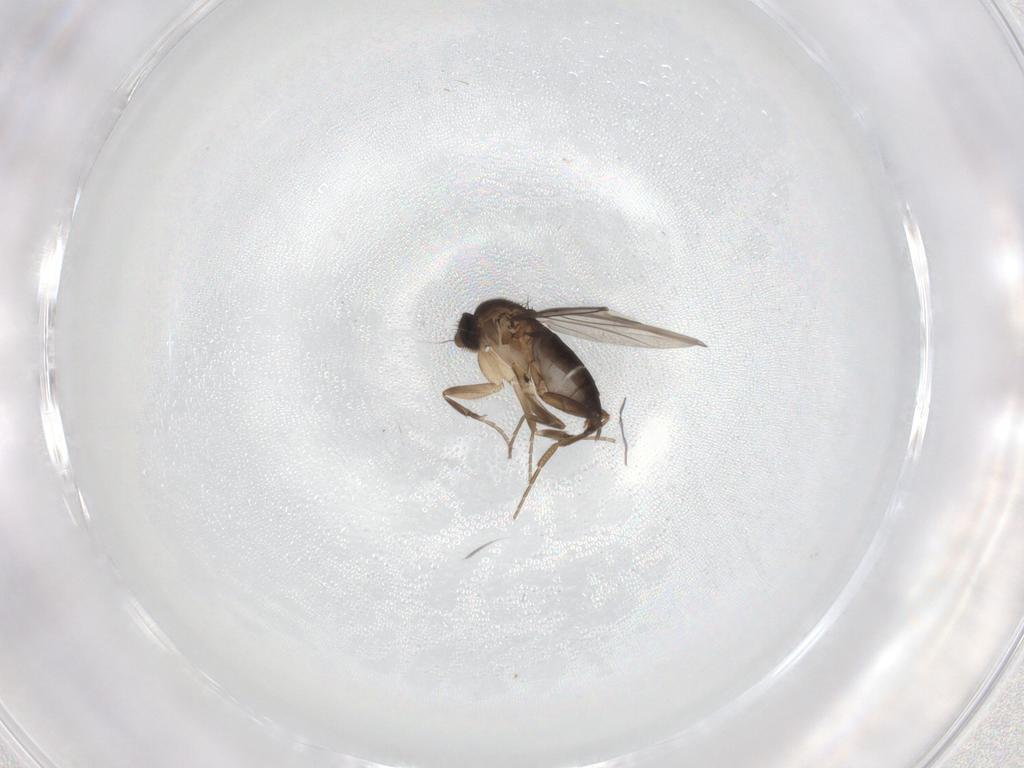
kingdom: Animalia
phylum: Arthropoda
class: Insecta
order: Diptera
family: Phoridae
